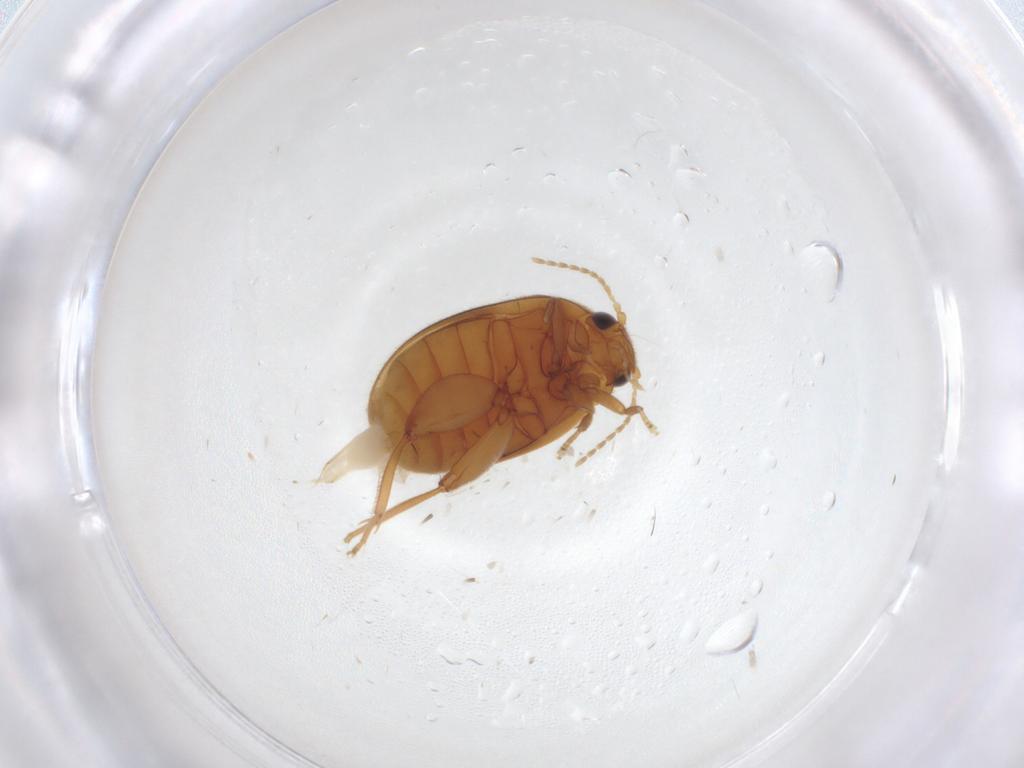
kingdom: Animalia
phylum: Arthropoda
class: Insecta
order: Coleoptera
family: Scirtidae
